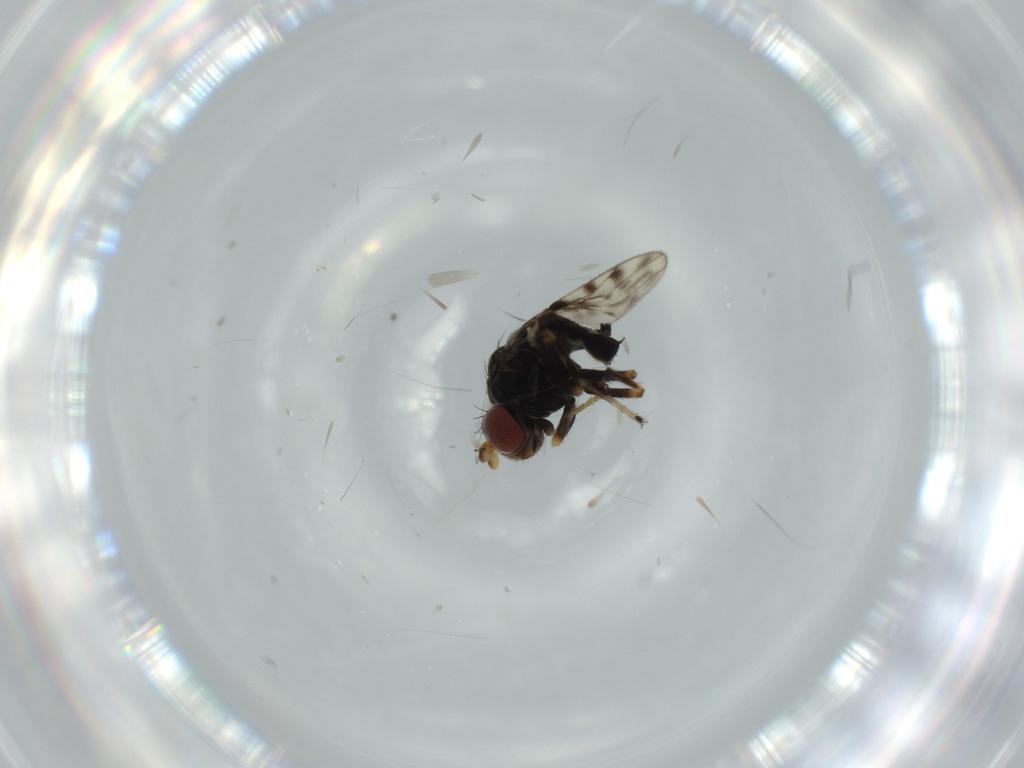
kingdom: Animalia
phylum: Arthropoda
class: Insecta
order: Diptera
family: Ephydridae
